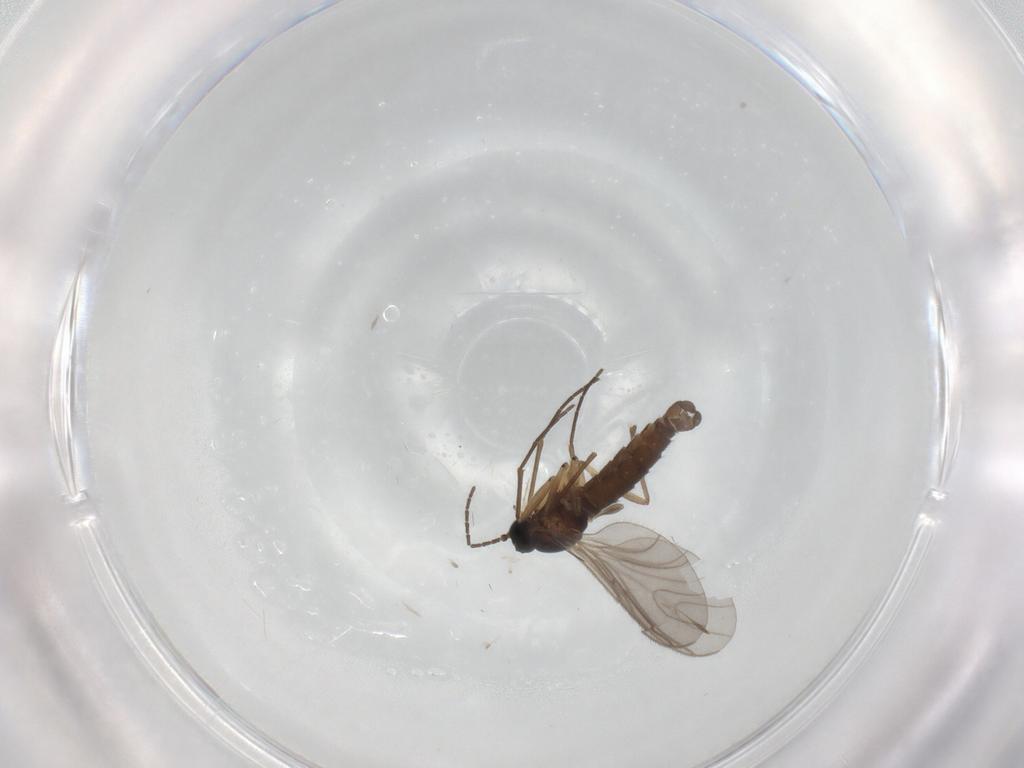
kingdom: Animalia
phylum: Arthropoda
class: Insecta
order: Diptera
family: Sciaridae
